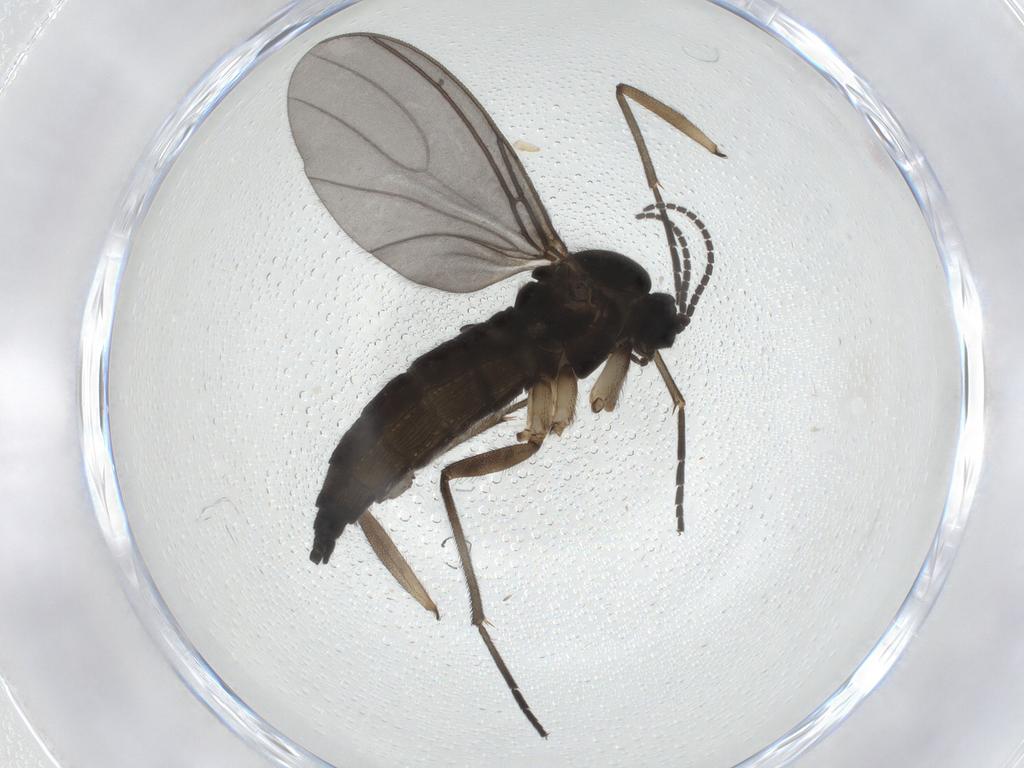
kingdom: Animalia
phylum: Arthropoda
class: Insecta
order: Diptera
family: Sciaridae
